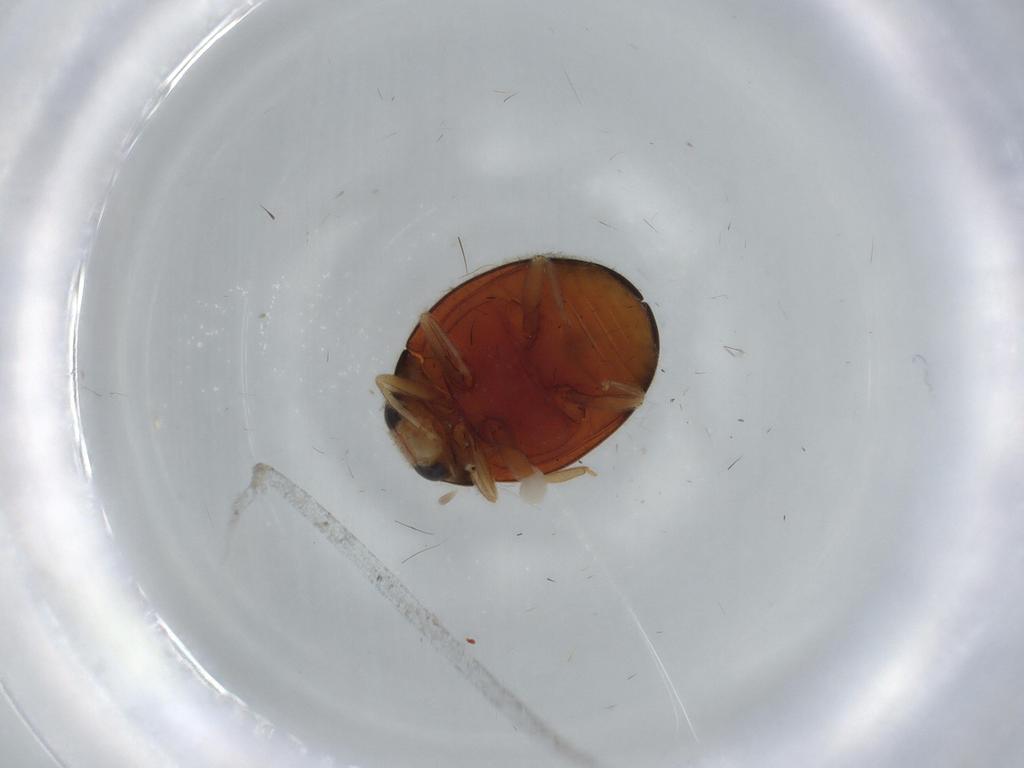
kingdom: Animalia
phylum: Arthropoda
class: Insecta
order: Coleoptera
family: Coccinellidae
